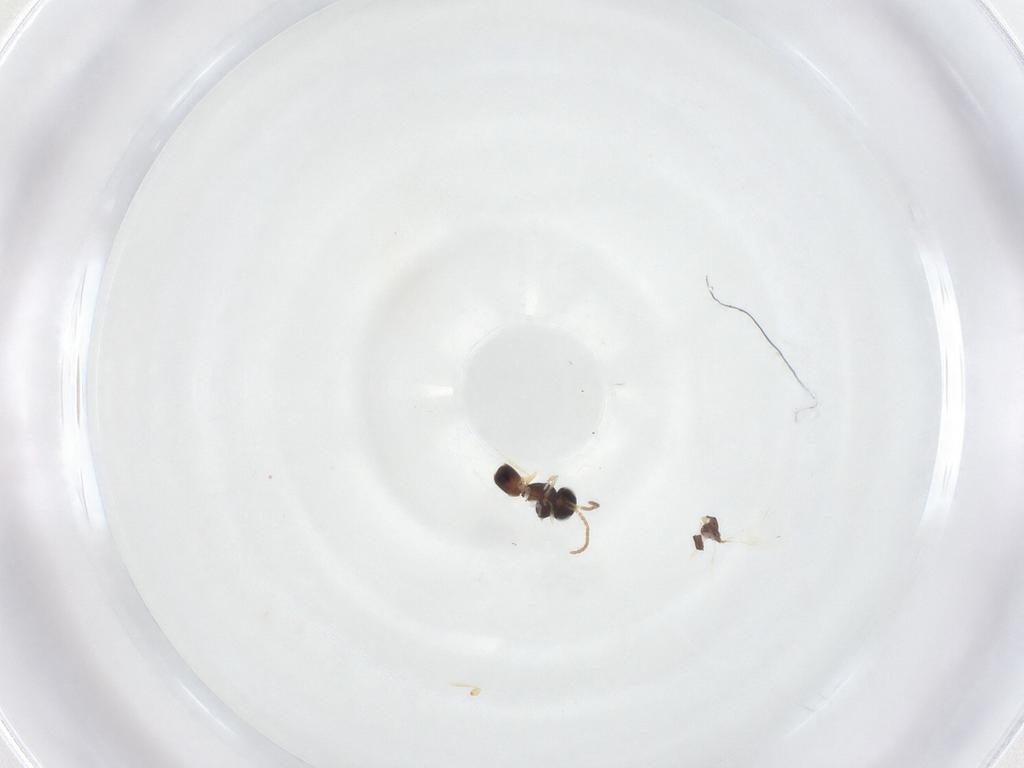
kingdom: Animalia
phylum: Arthropoda
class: Insecta
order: Hymenoptera
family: Scelionidae
